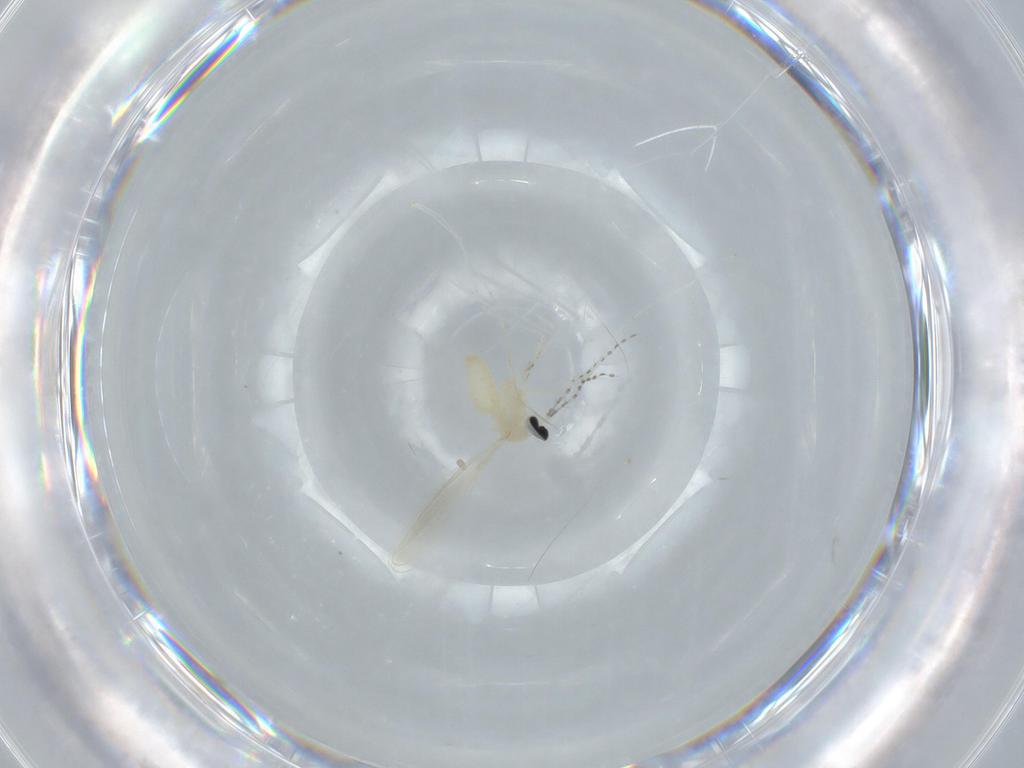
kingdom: Animalia
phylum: Arthropoda
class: Insecta
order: Diptera
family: Cecidomyiidae
